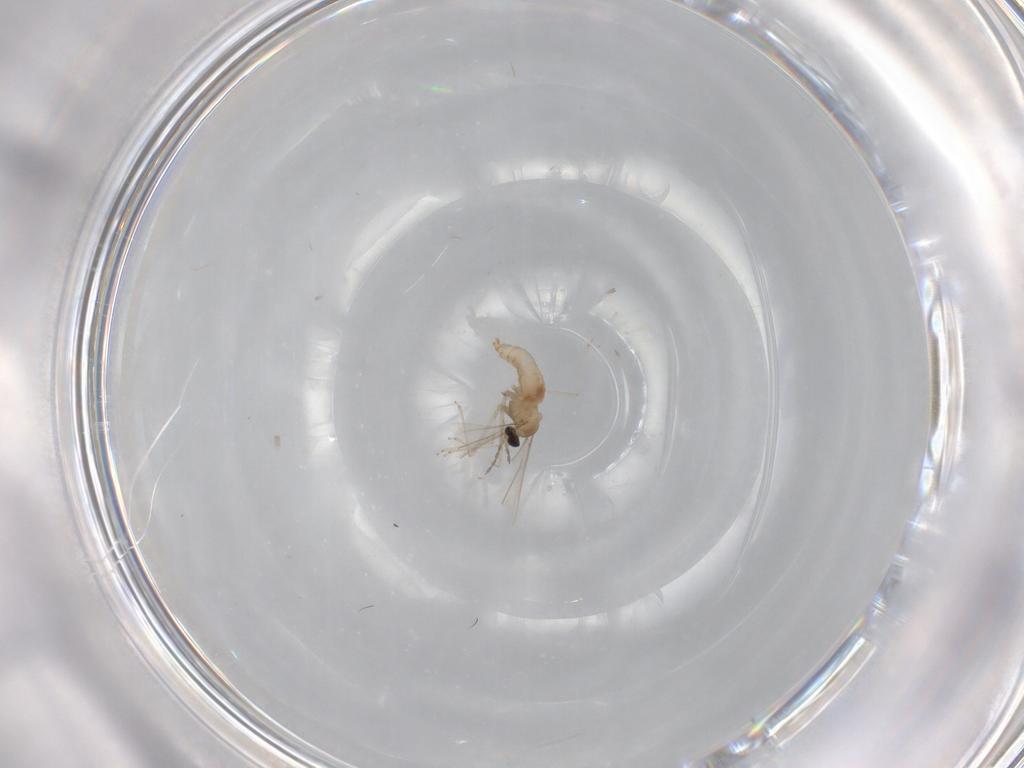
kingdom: Animalia
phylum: Arthropoda
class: Insecta
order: Diptera
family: Cecidomyiidae
